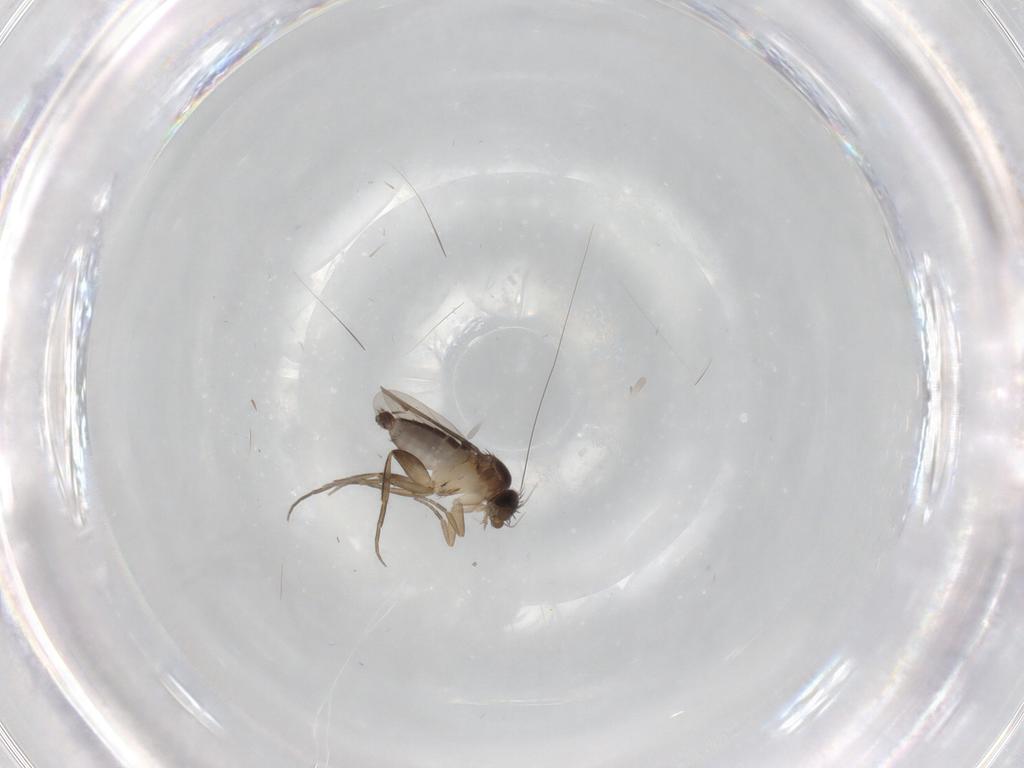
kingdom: Animalia
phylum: Arthropoda
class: Insecta
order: Diptera
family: Phoridae
